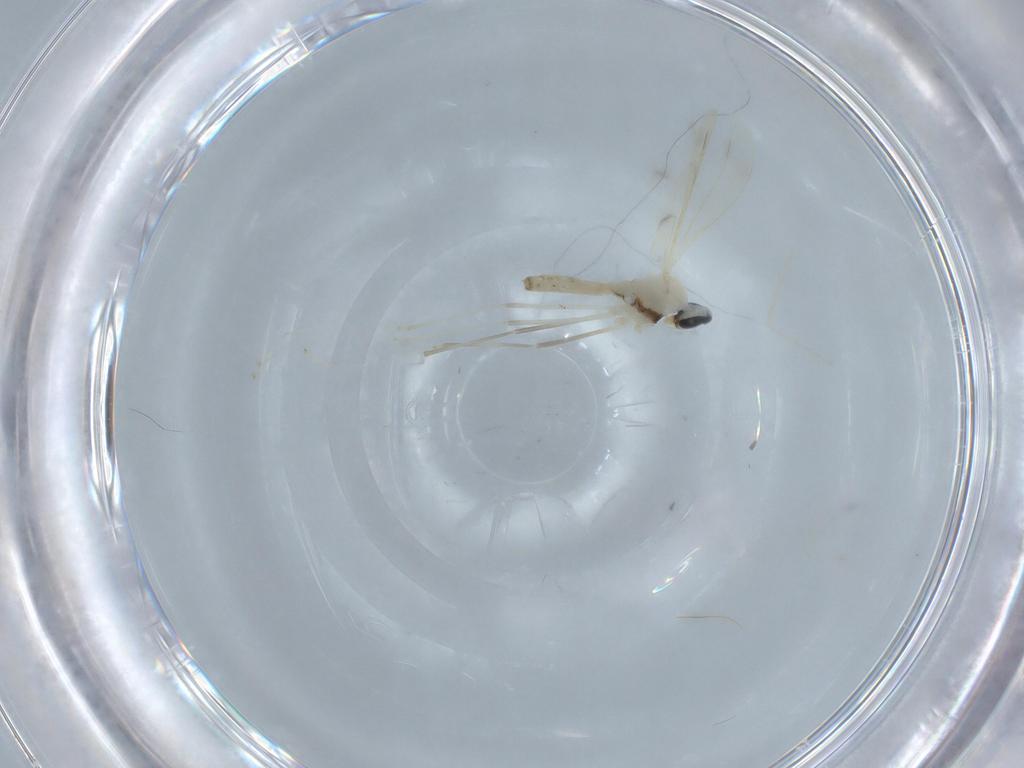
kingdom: Animalia
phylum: Arthropoda
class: Insecta
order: Diptera
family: Cecidomyiidae
